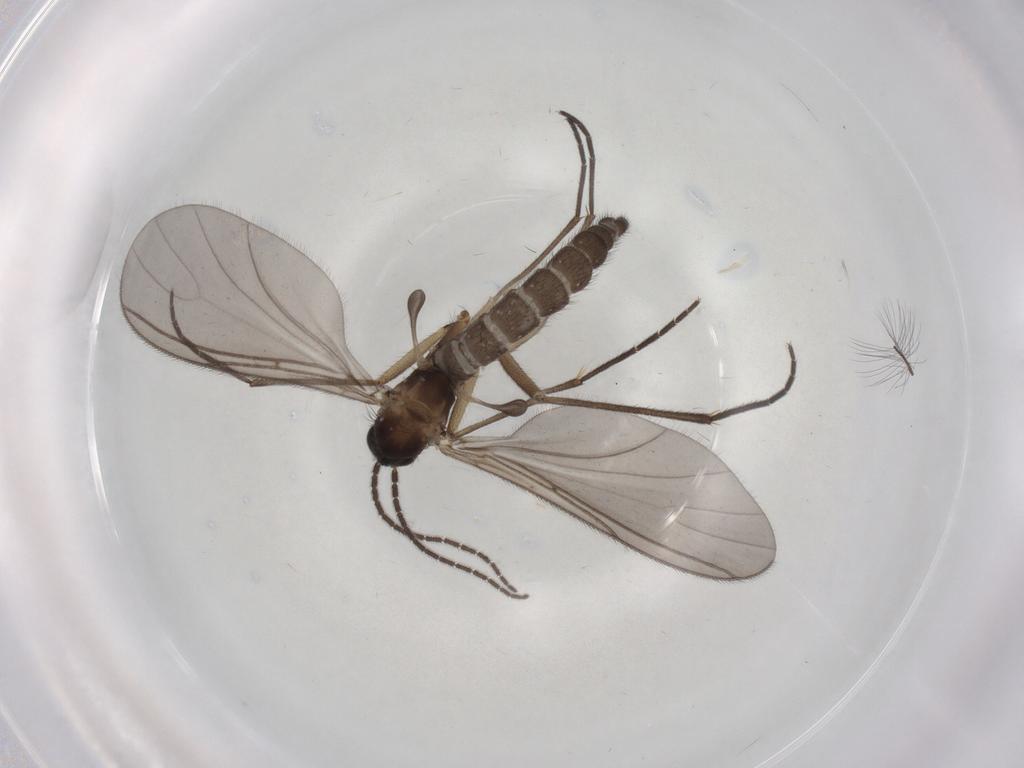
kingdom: Animalia
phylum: Arthropoda
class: Insecta
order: Diptera
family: Sciaridae
